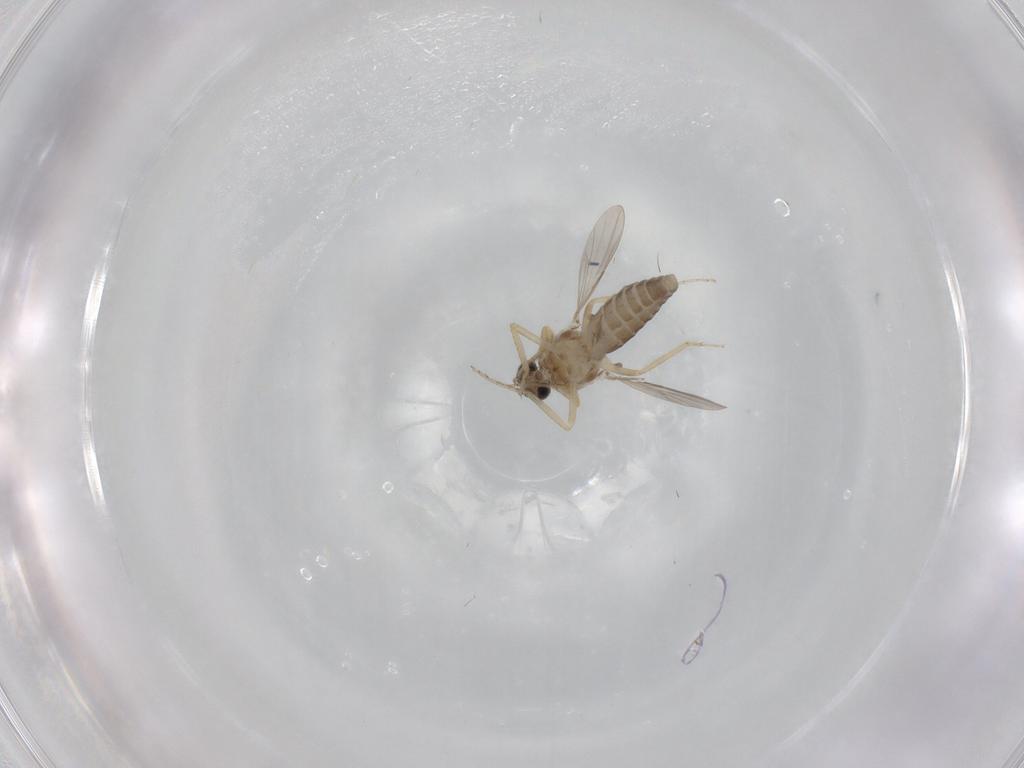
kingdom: Animalia
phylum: Arthropoda
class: Insecta
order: Diptera
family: Ceratopogonidae
